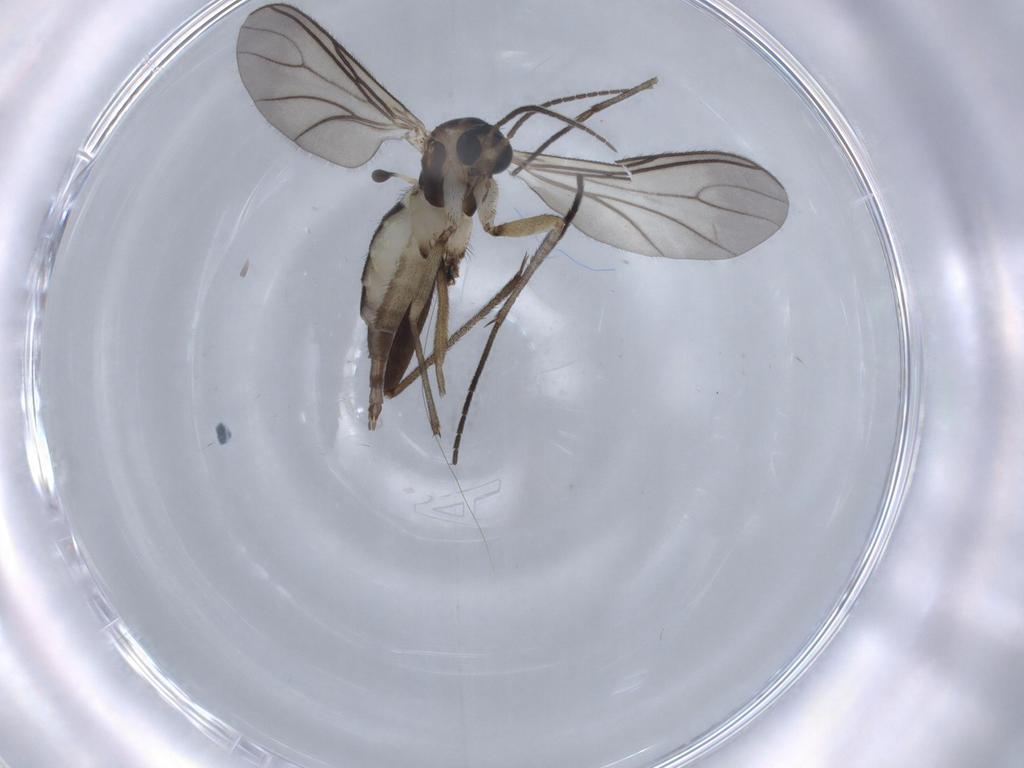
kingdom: Animalia
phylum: Arthropoda
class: Insecta
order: Diptera
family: Sciaridae
